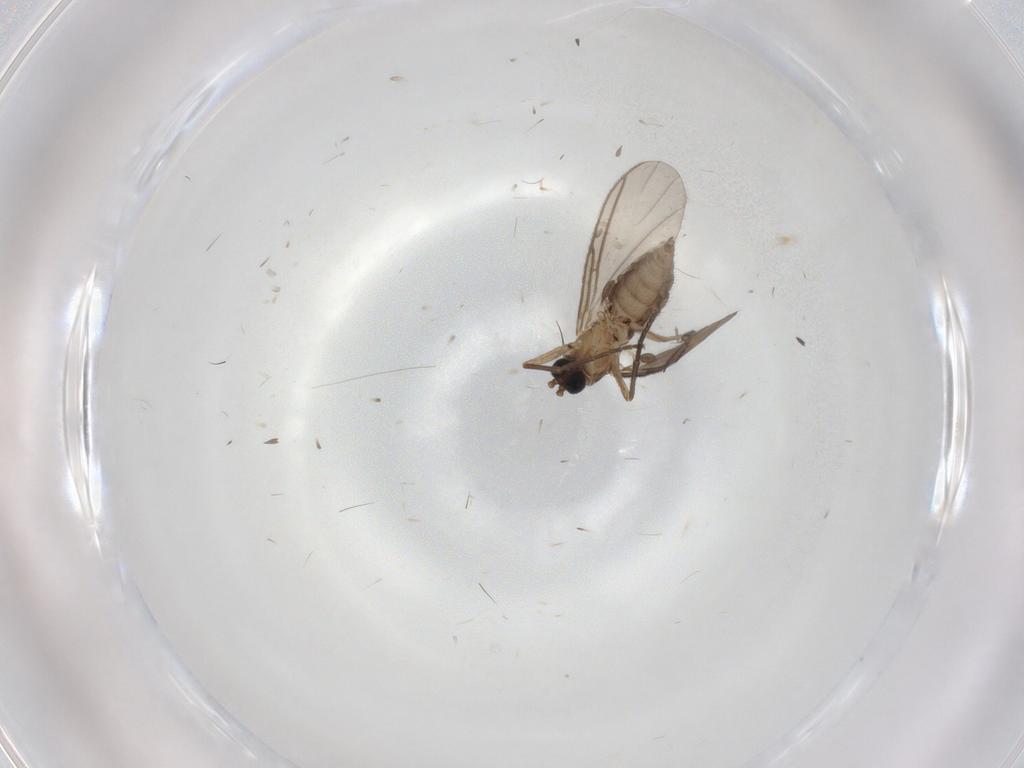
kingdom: Animalia
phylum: Arthropoda
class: Insecta
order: Diptera
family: Sciaridae
